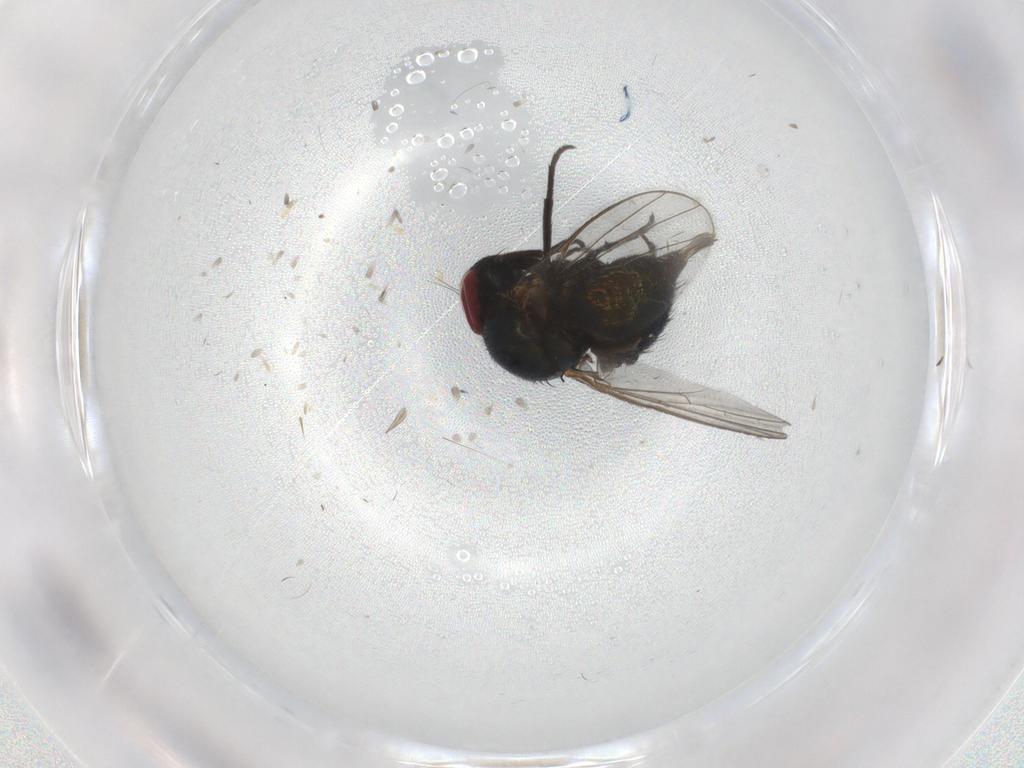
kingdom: Animalia
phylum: Arthropoda
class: Insecta
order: Diptera
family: Agromyzidae
